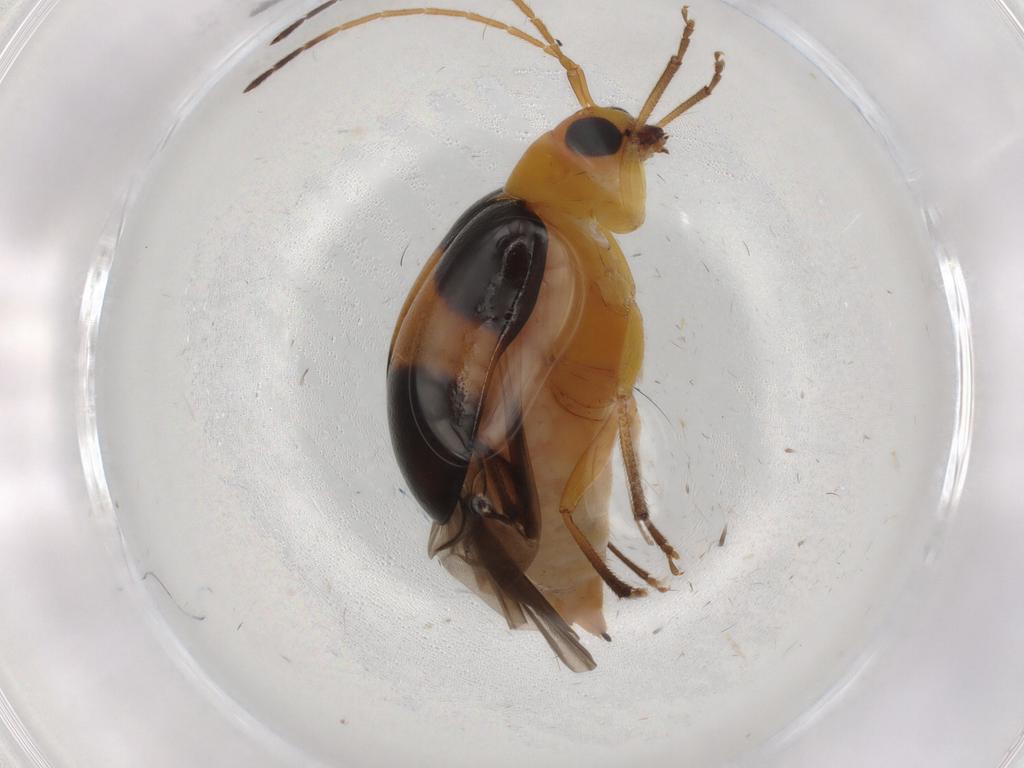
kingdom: Animalia
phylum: Arthropoda
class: Insecta
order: Coleoptera
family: Chrysomelidae
